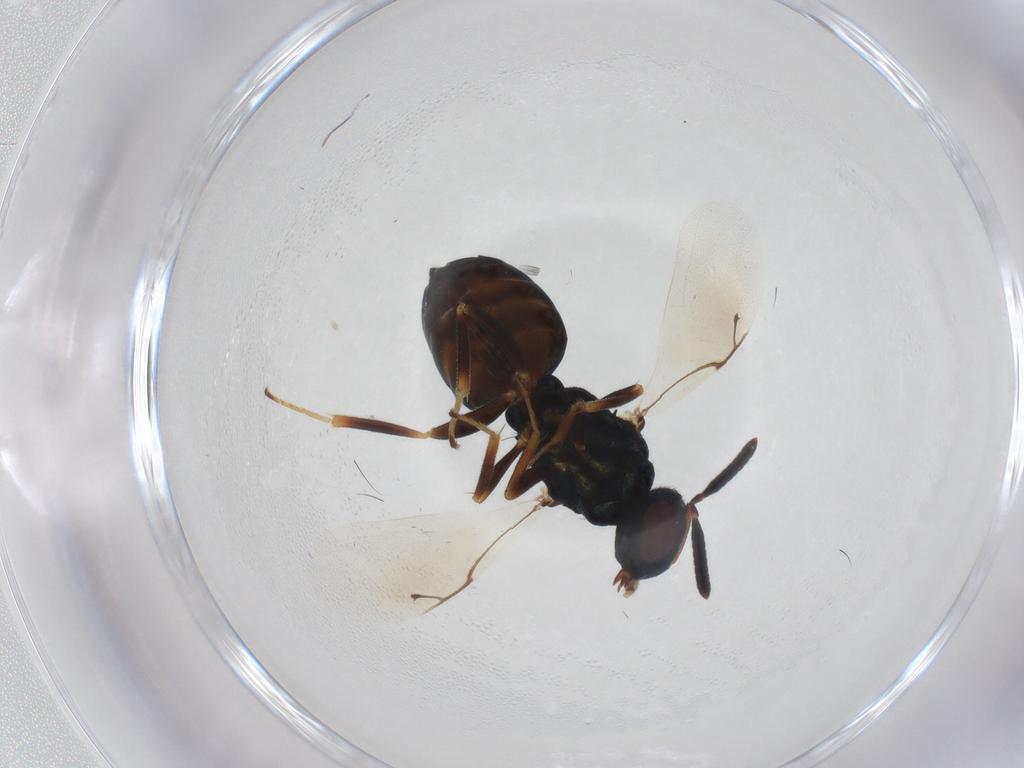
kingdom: Animalia
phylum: Arthropoda
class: Insecta
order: Hymenoptera
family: Pteromalidae
